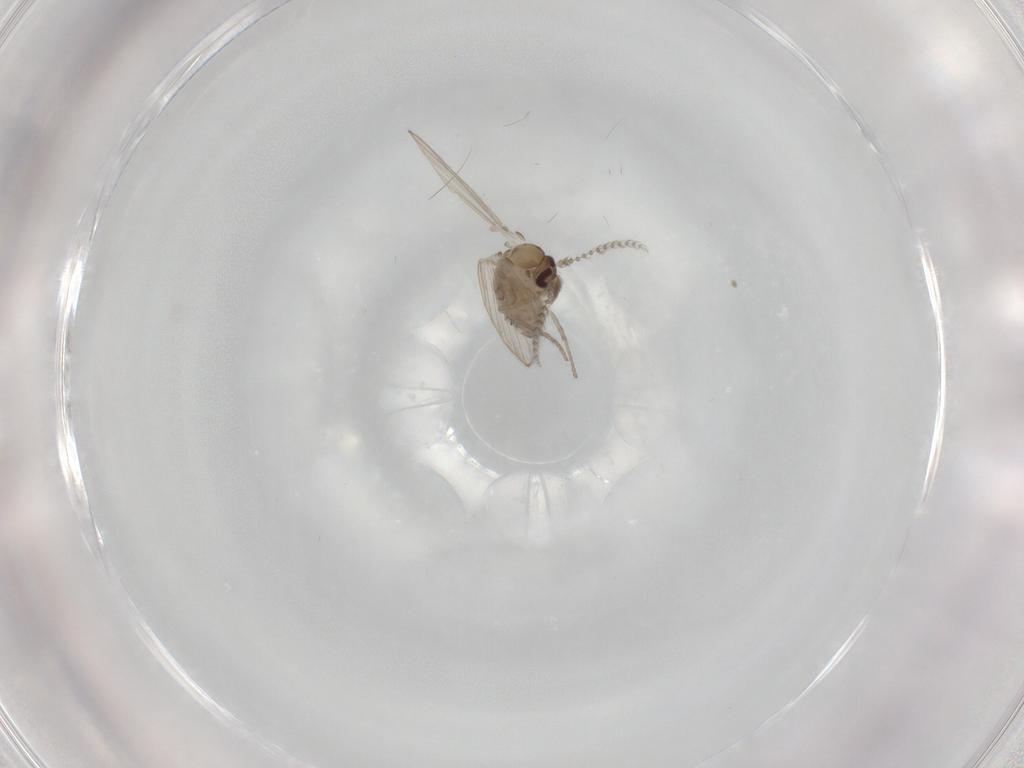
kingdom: Animalia
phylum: Arthropoda
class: Insecta
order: Diptera
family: Psychodidae
